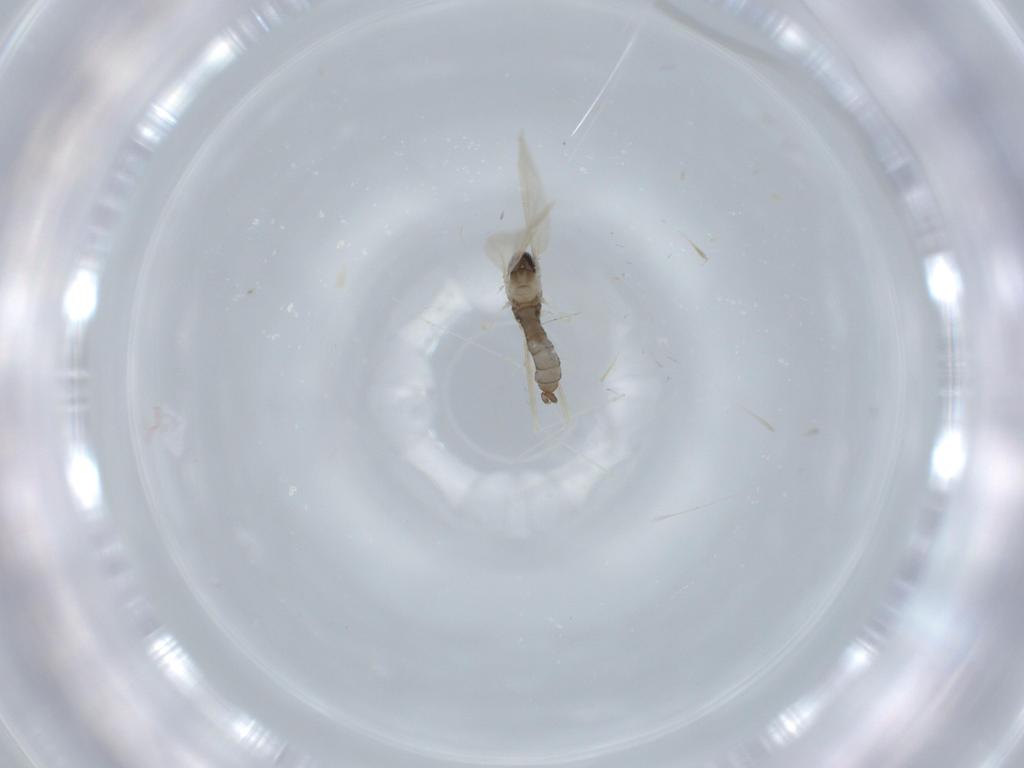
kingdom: Animalia
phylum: Arthropoda
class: Insecta
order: Diptera
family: Cecidomyiidae
